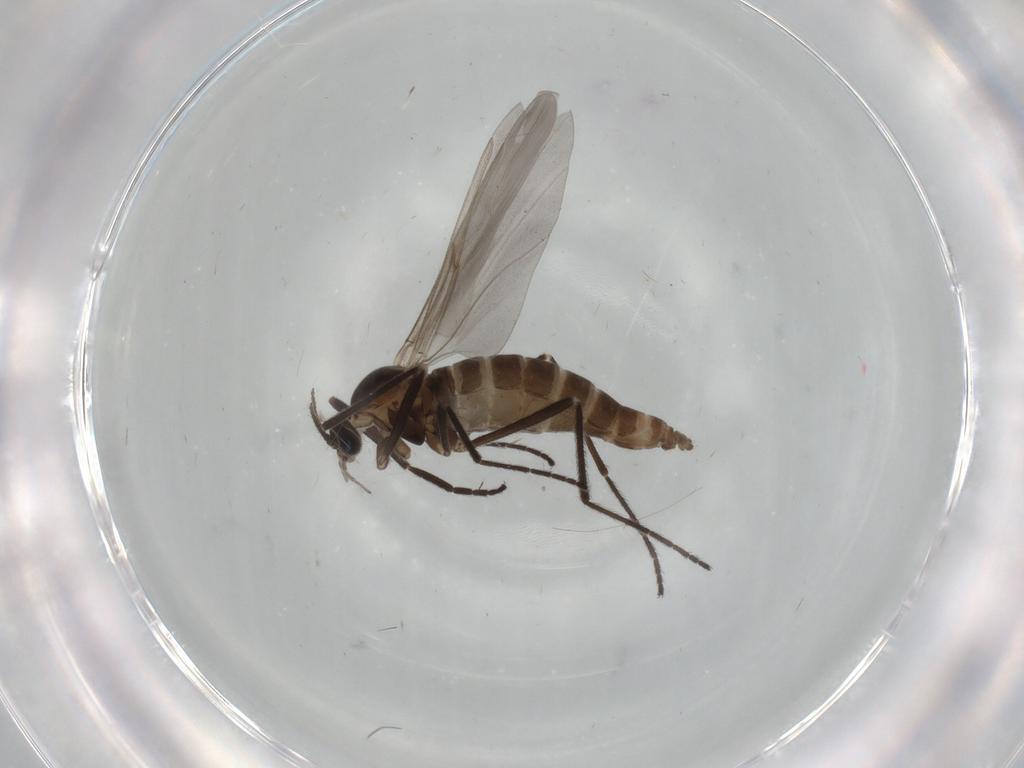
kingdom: Animalia
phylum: Arthropoda
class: Insecta
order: Diptera
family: Cecidomyiidae
